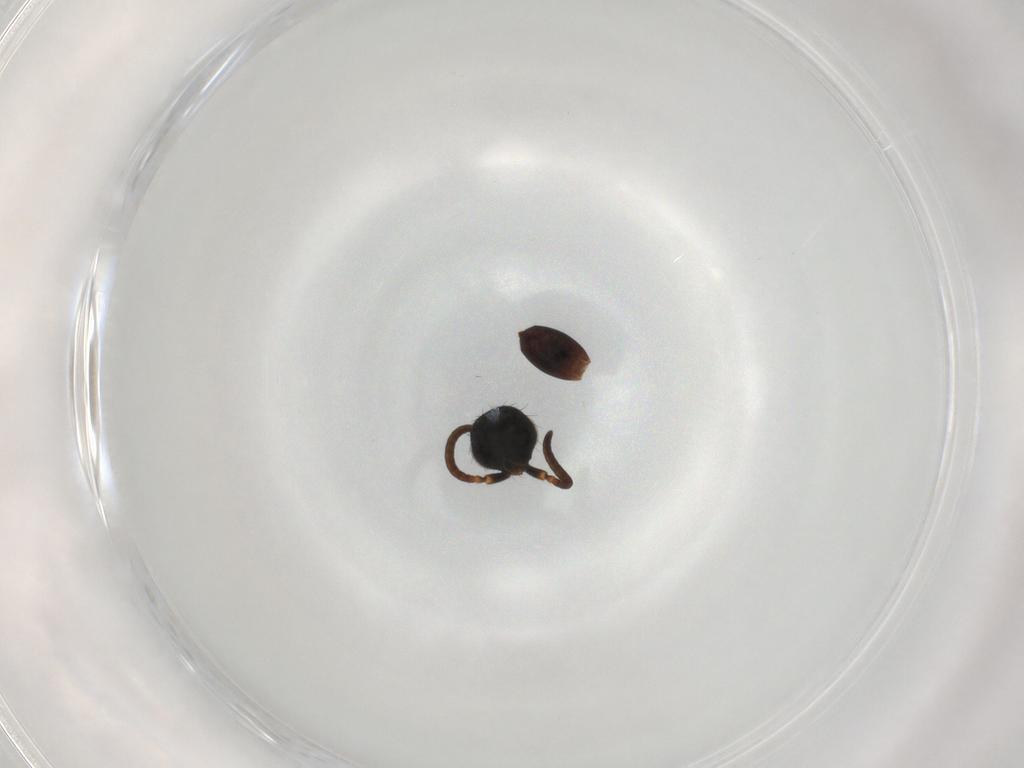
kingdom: Animalia
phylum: Arthropoda
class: Insecta
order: Hymenoptera
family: Diapriidae
